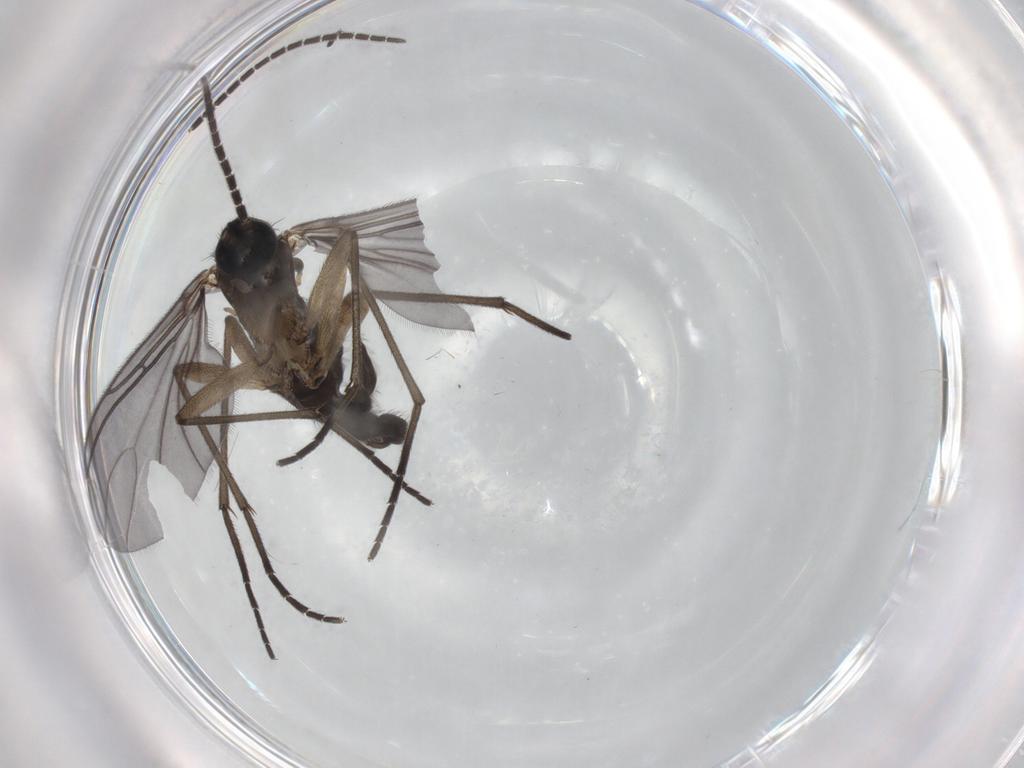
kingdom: Animalia
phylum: Arthropoda
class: Insecta
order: Diptera
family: Sciaridae
